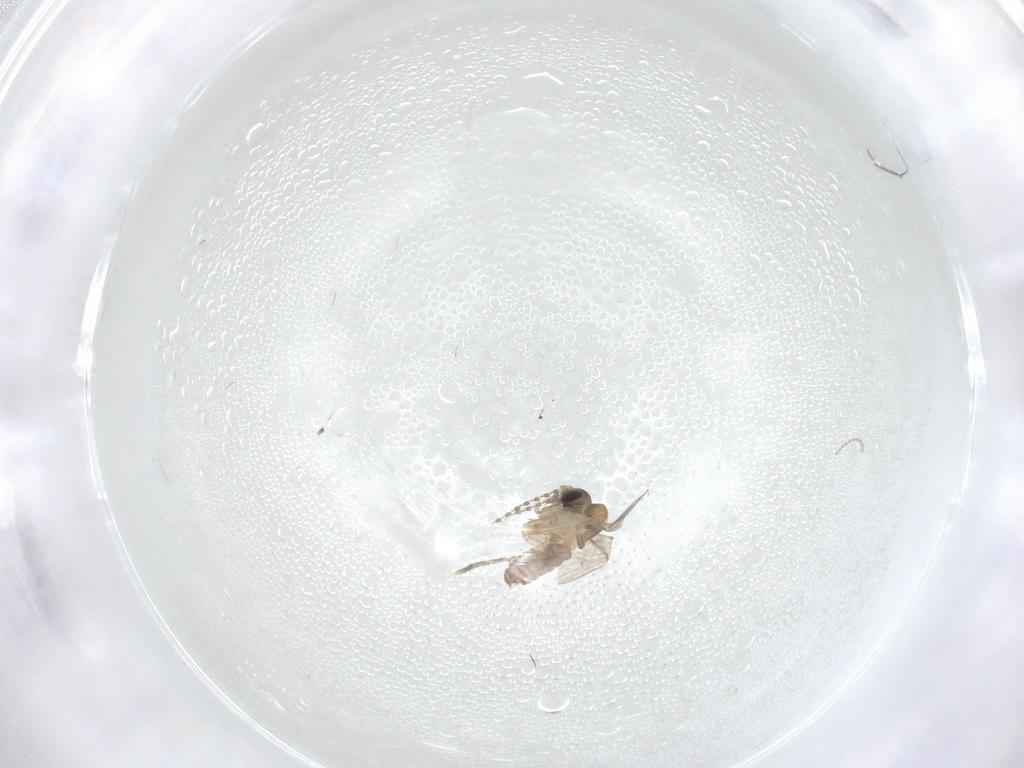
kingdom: Animalia
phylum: Arthropoda
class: Insecta
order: Diptera
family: Cecidomyiidae
